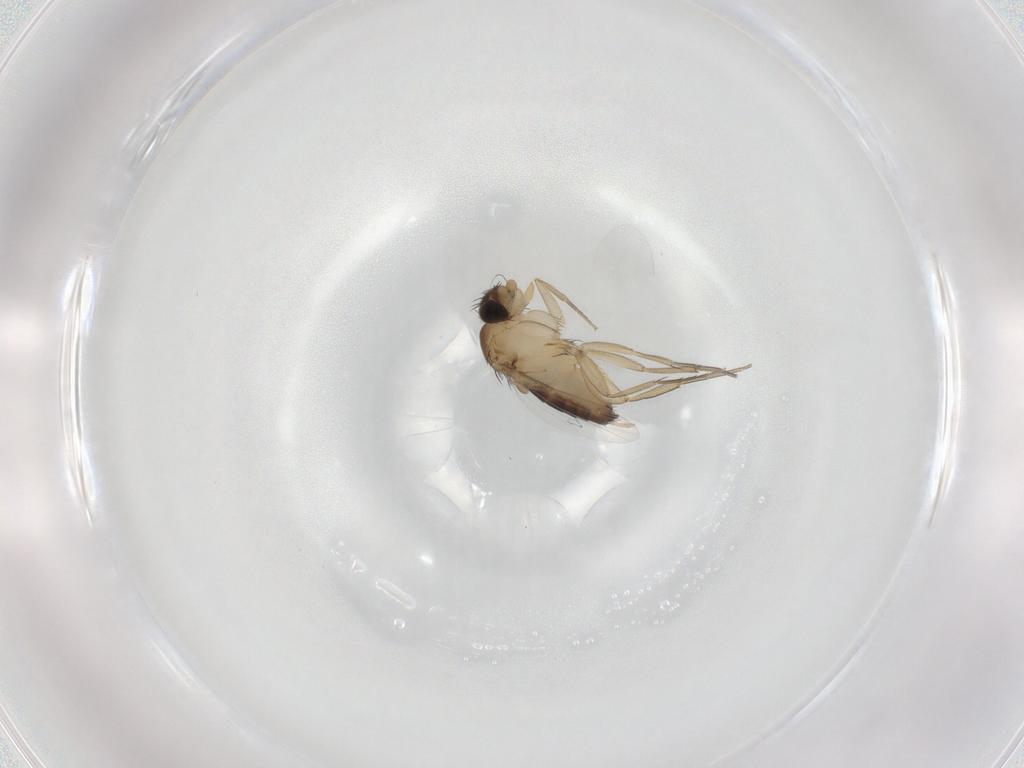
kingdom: Animalia
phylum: Arthropoda
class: Insecta
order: Diptera
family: Phoridae
